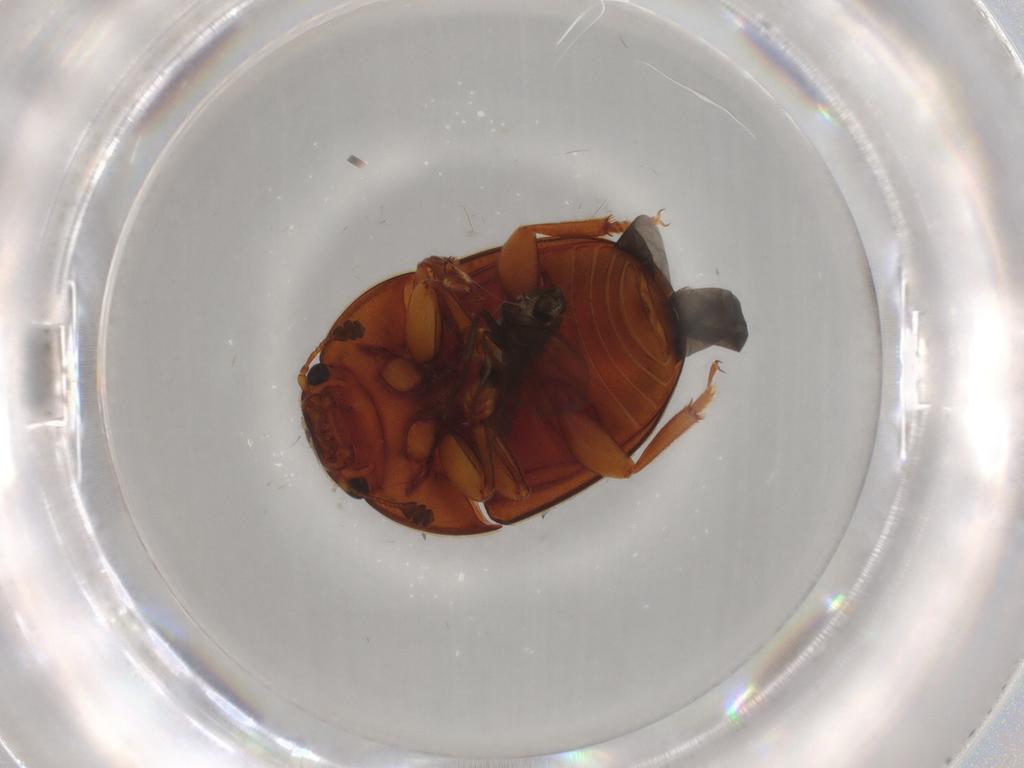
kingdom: Animalia
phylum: Arthropoda
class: Insecta
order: Coleoptera
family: Nitidulidae
